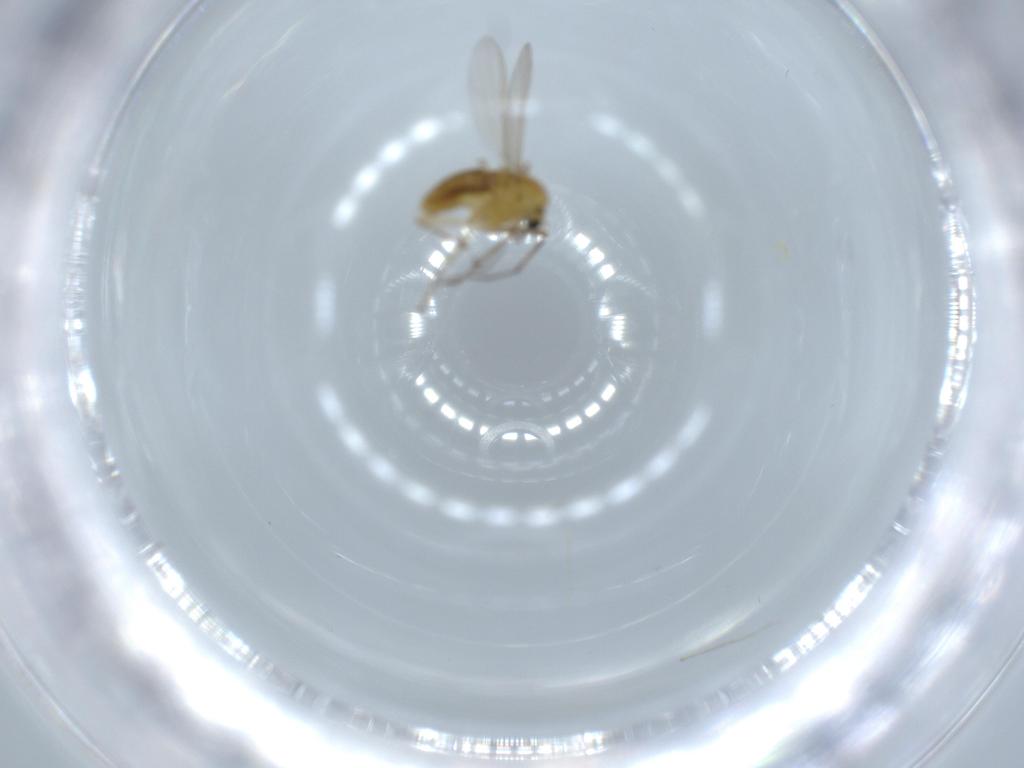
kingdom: Animalia
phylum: Arthropoda
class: Insecta
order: Diptera
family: Chironomidae
